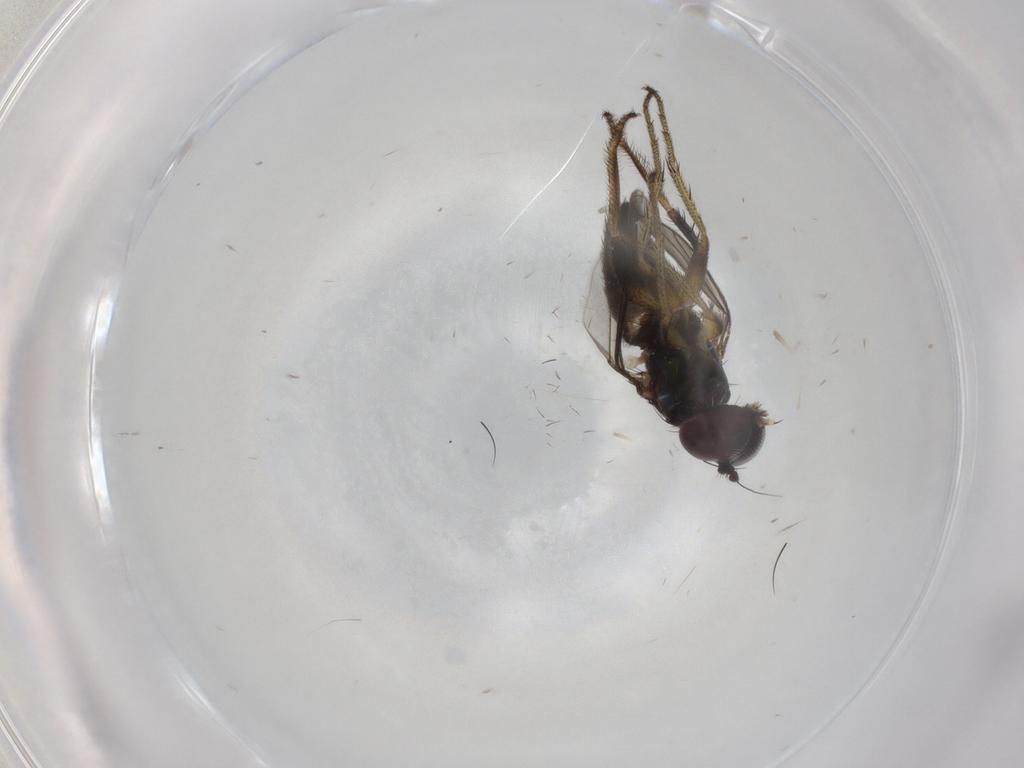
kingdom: Animalia
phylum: Arthropoda
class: Insecta
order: Diptera
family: Dolichopodidae
